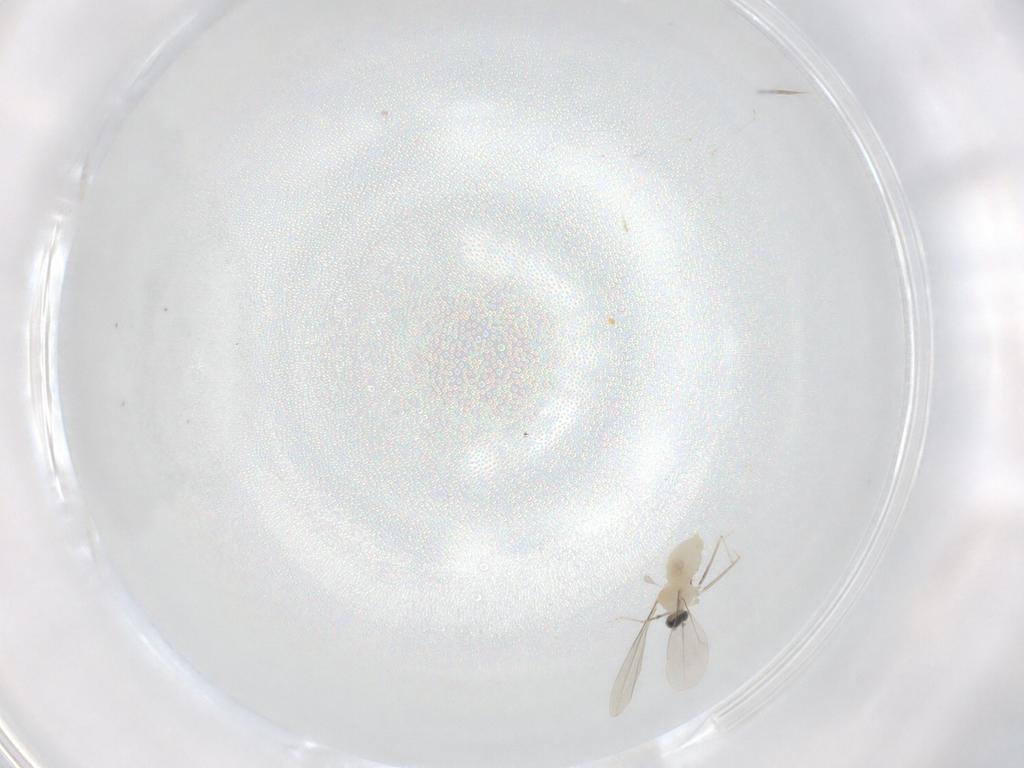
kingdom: Animalia
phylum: Arthropoda
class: Insecta
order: Diptera
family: Cecidomyiidae
